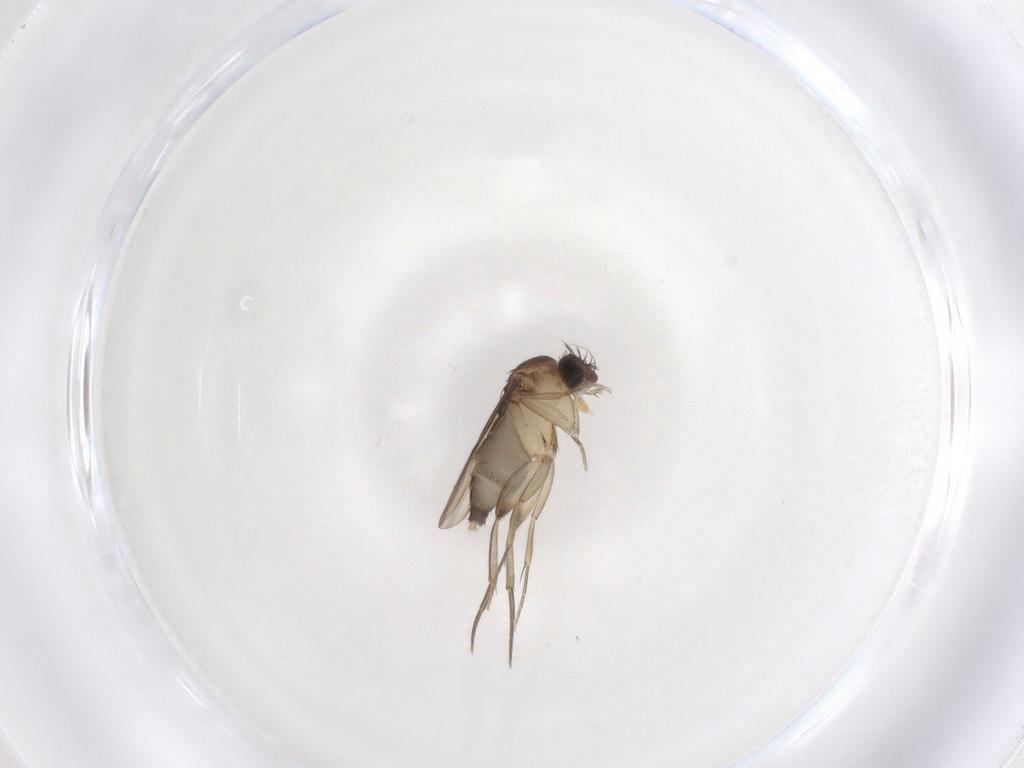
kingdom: Animalia
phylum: Arthropoda
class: Insecta
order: Diptera
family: Phoridae
